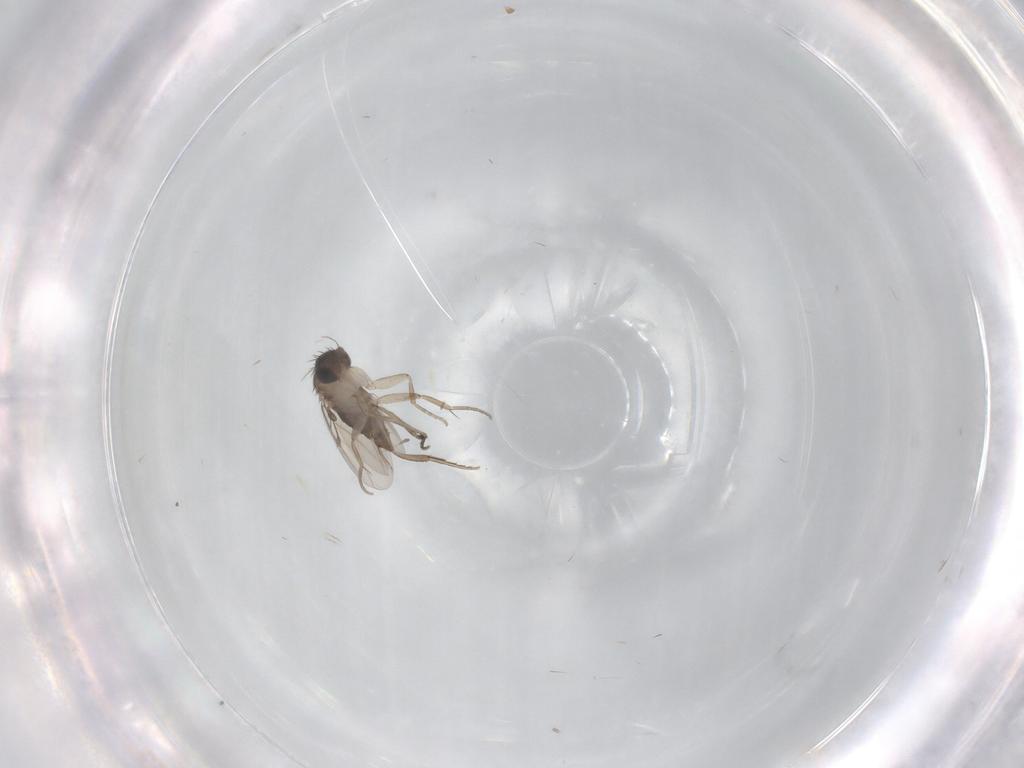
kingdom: Animalia
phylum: Arthropoda
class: Insecta
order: Diptera
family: Phoridae
